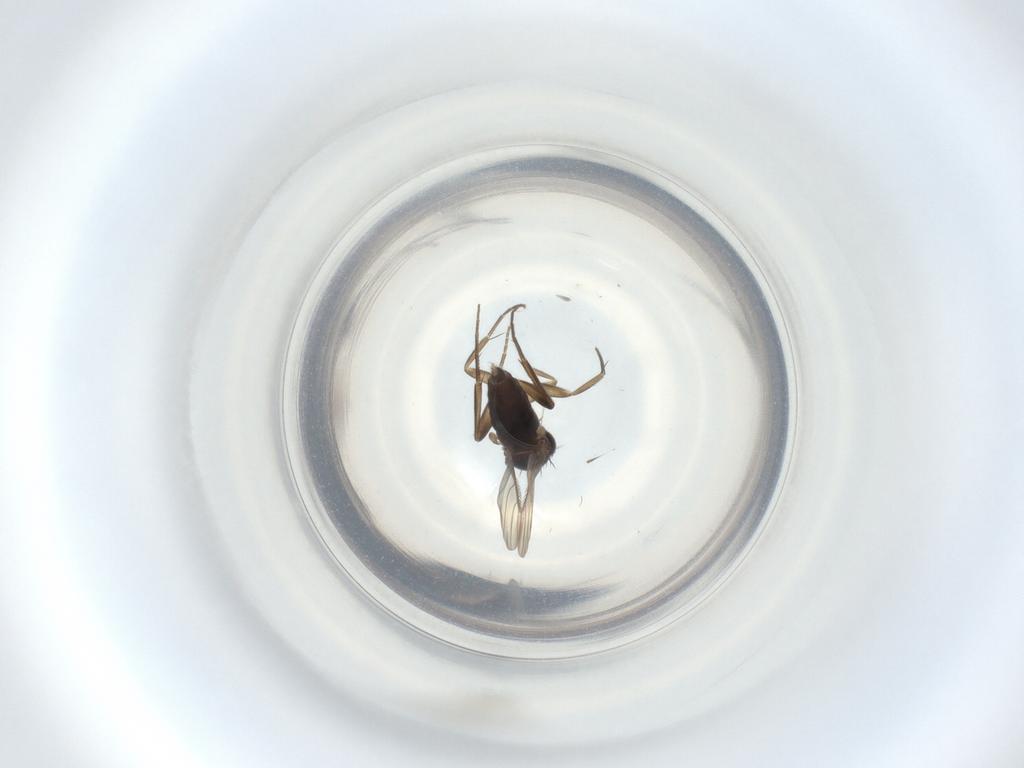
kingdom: Animalia
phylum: Arthropoda
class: Insecta
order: Diptera
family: Phoridae
